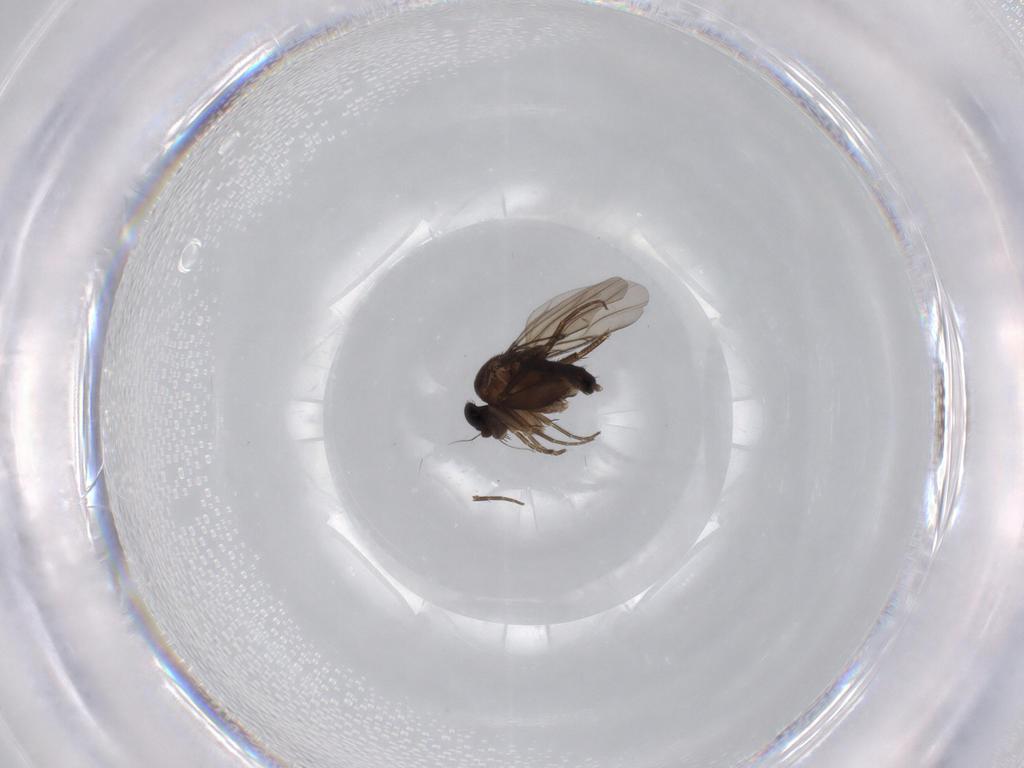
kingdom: Animalia
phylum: Arthropoda
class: Insecta
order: Diptera
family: Phoridae
